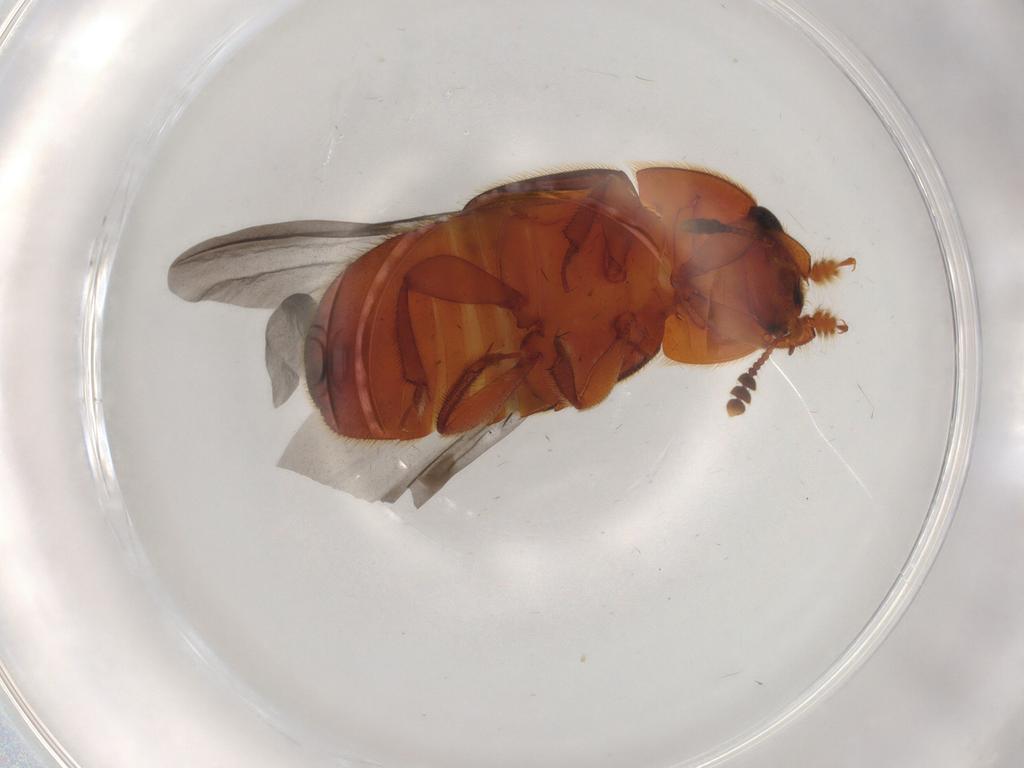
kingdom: Animalia
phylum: Arthropoda
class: Insecta
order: Coleoptera
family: Nitidulidae
